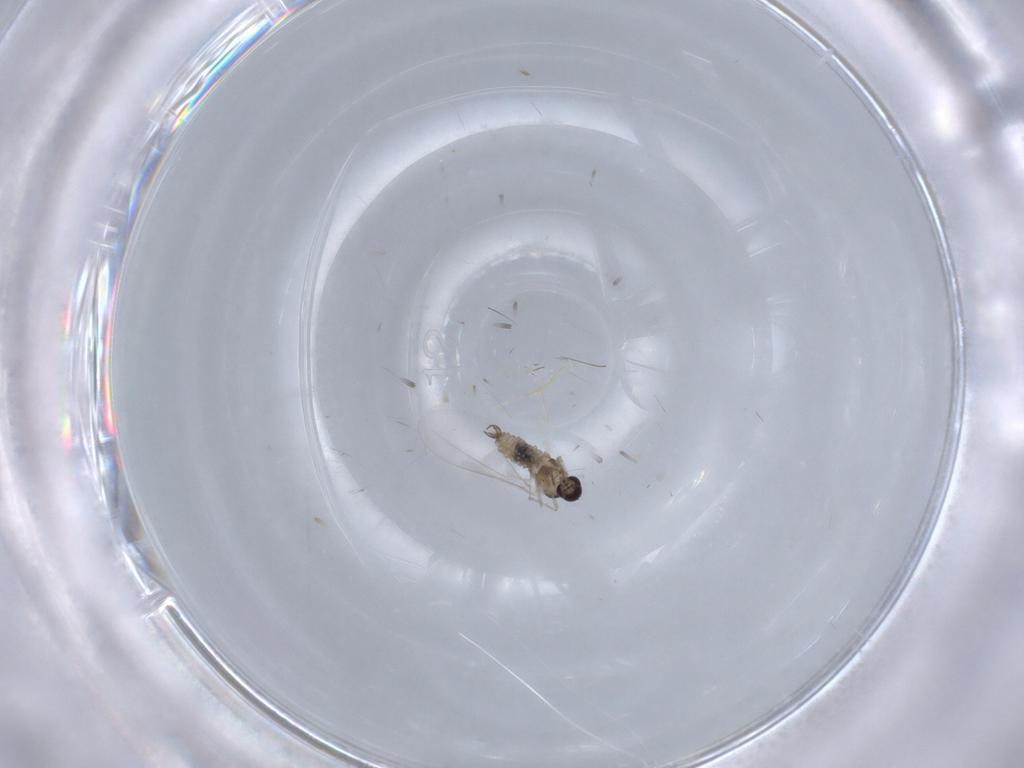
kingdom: Animalia
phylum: Arthropoda
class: Insecta
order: Diptera
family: Cecidomyiidae
